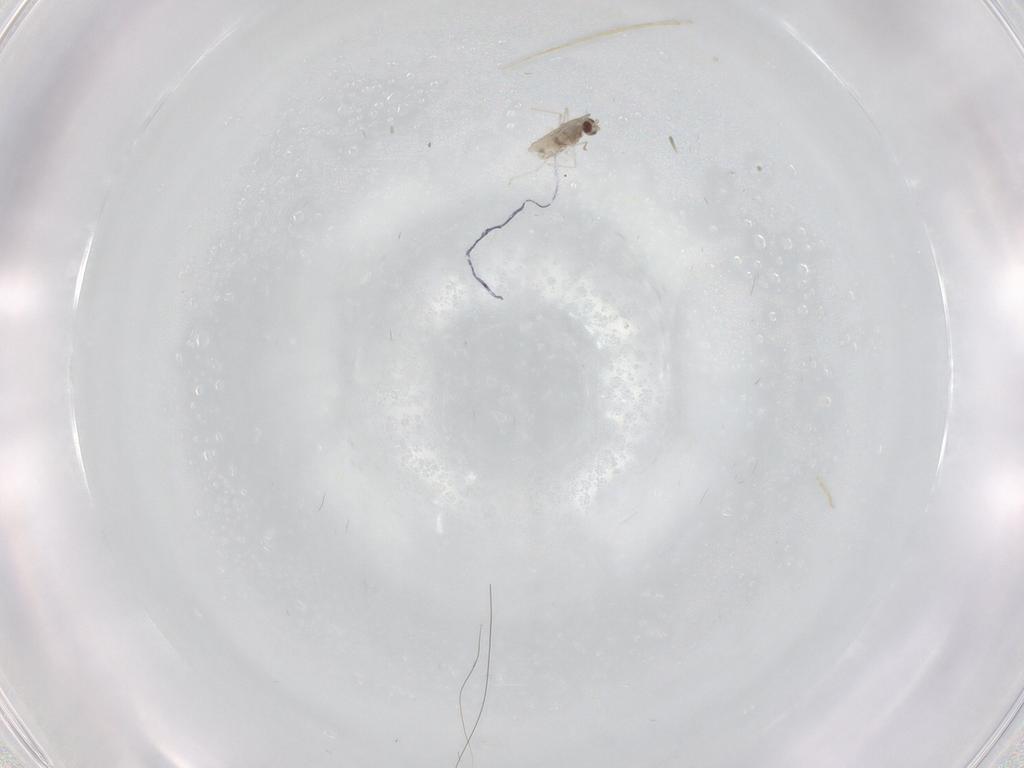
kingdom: Animalia
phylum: Arthropoda
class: Insecta
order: Diptera
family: Cecidomyiidae
